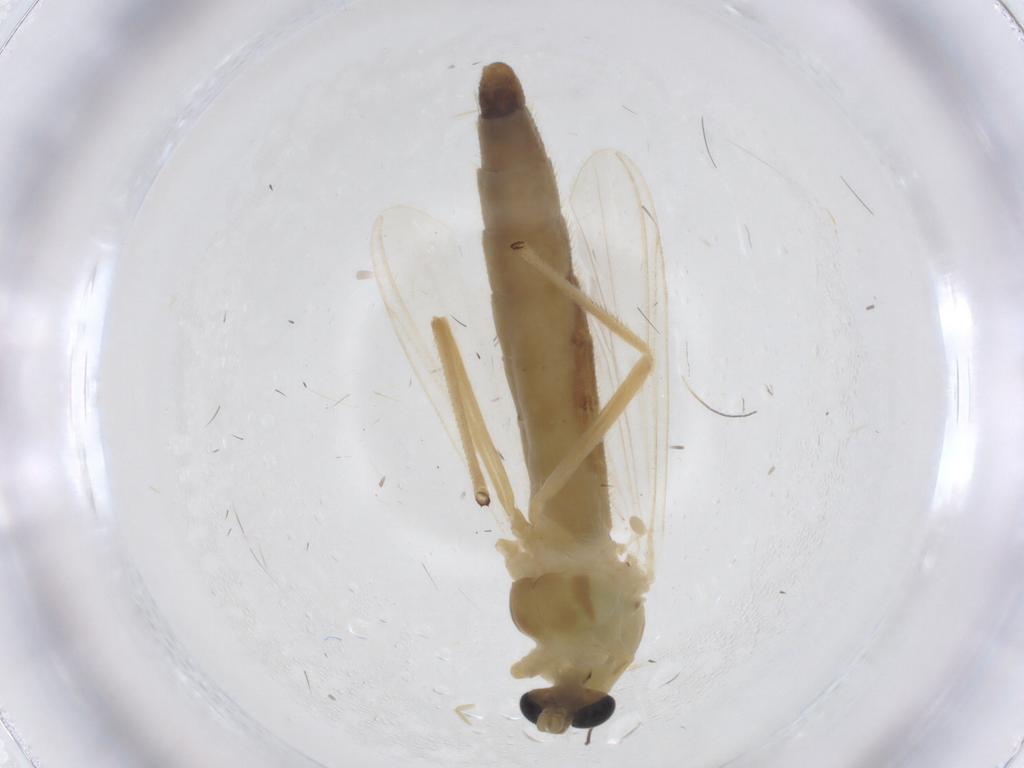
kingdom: Animalia
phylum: Arthropoda
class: Insecta
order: Diptera
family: Chironomidae
